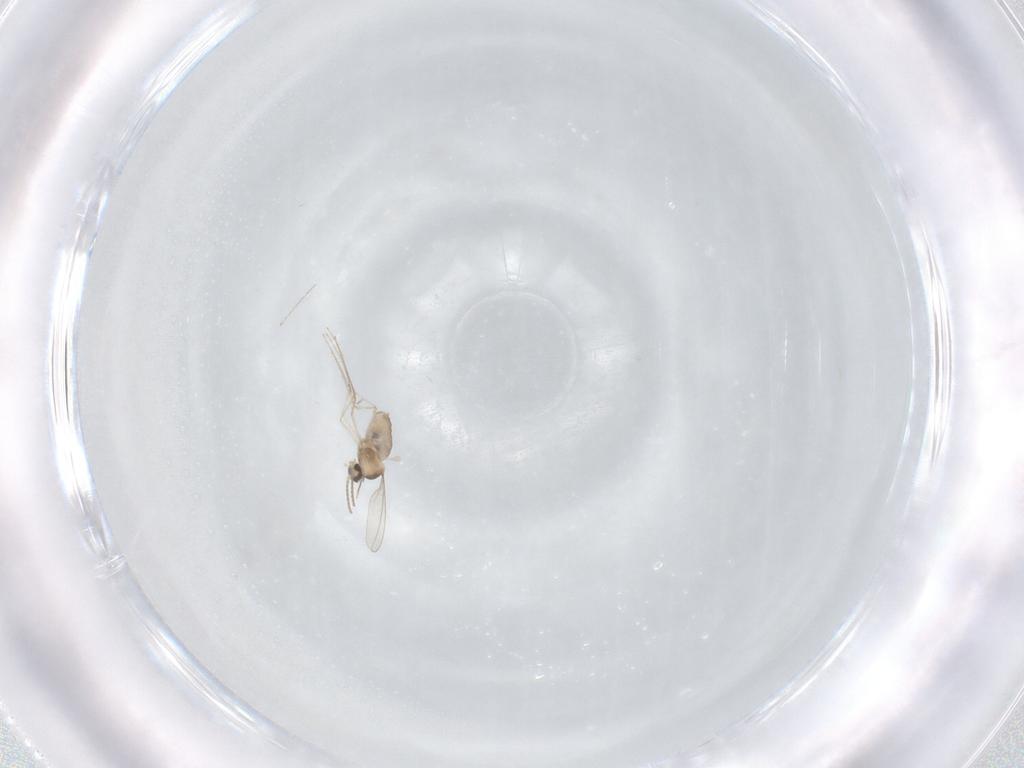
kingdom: Animalia
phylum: Arthropoda
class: Insecta
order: Diptera
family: Cecidomyiidae
